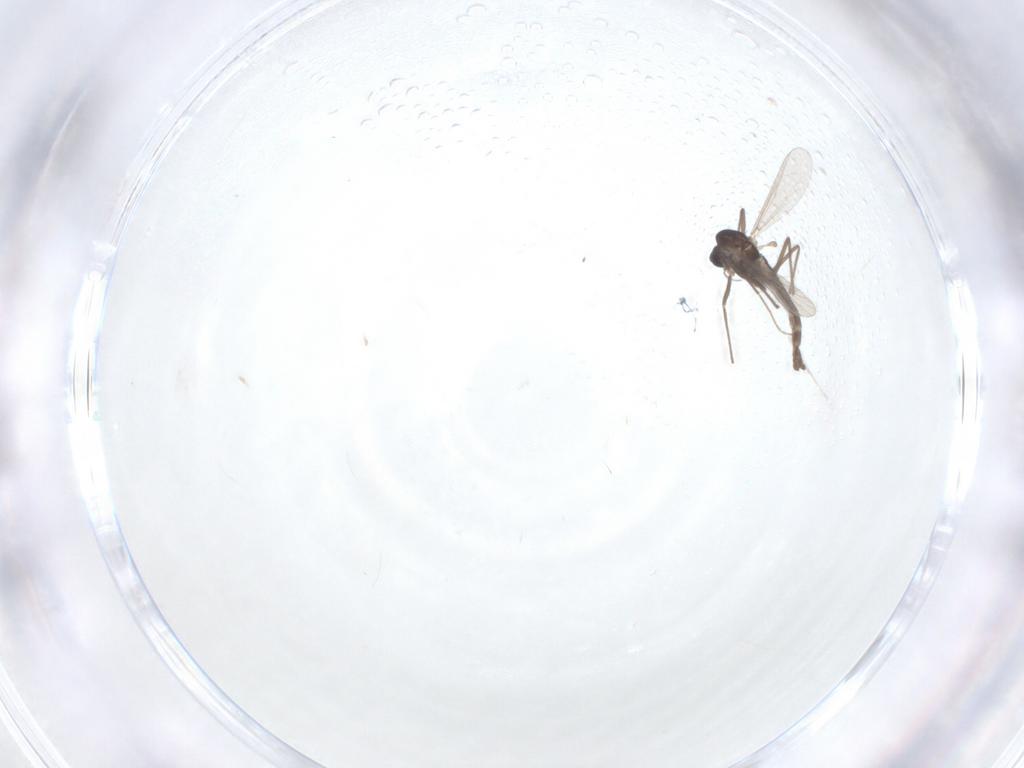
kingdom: Animalia
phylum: Arthropoda
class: Insecta
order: Diptera
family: Chironomidae
